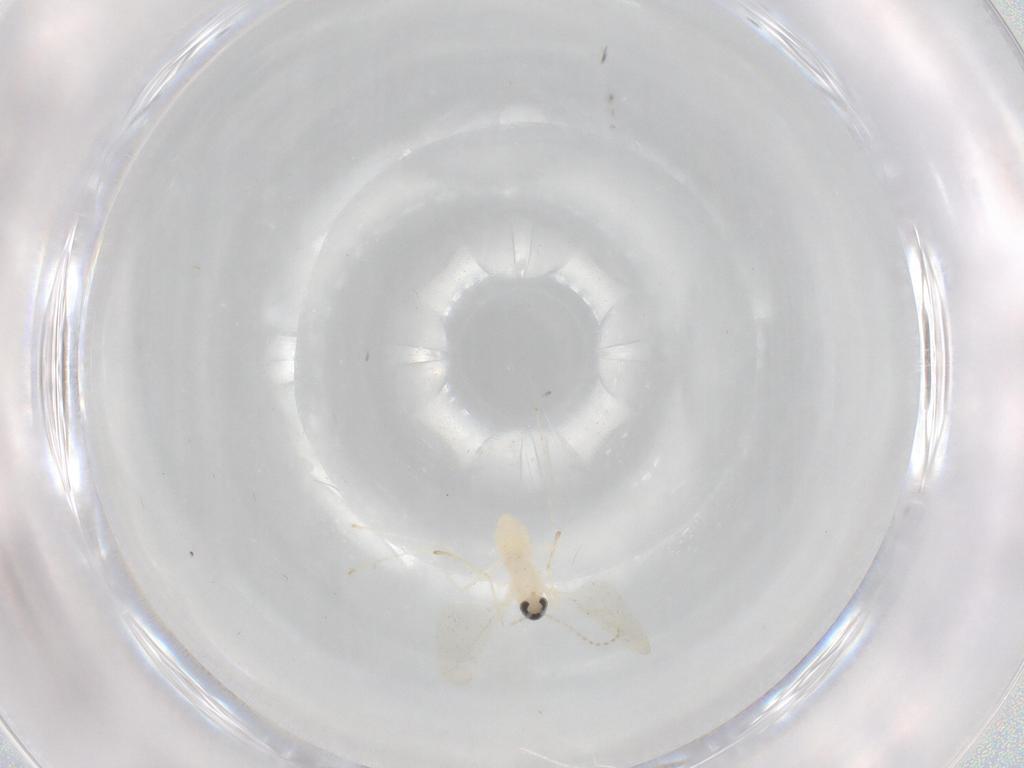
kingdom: Animalia
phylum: Arthropoda
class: Insecta
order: Diptera
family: Cecidomyiidae
